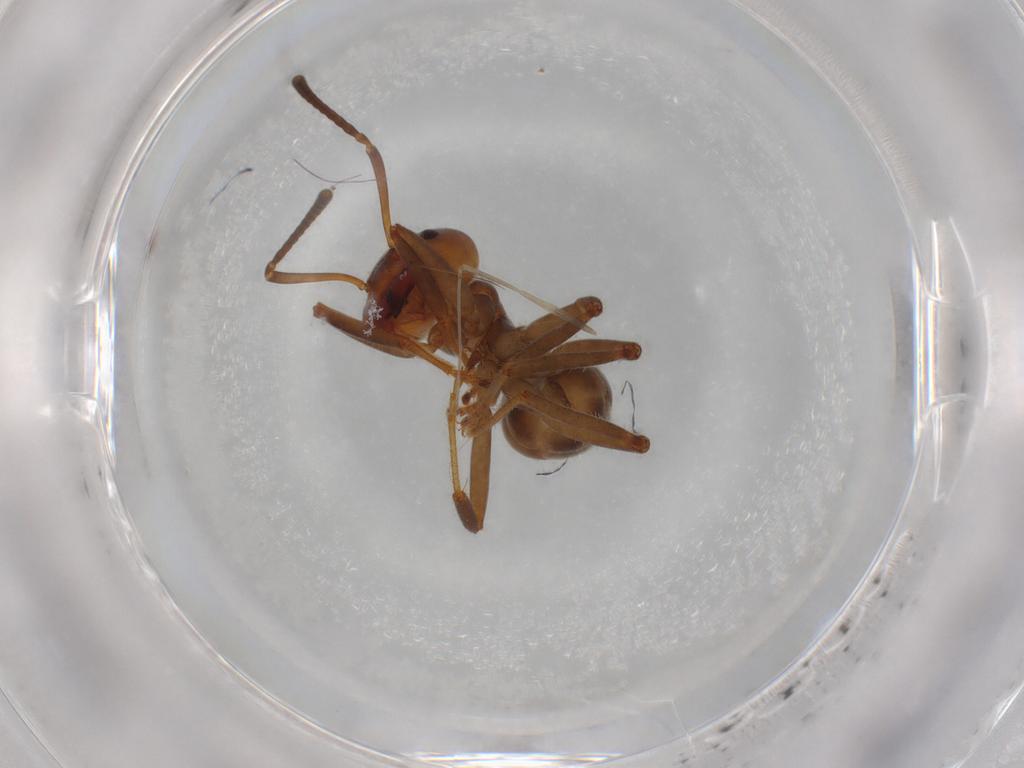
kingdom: Animalia
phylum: Arthropoda
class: Insecta
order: Hymenoptera
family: Formicidae
